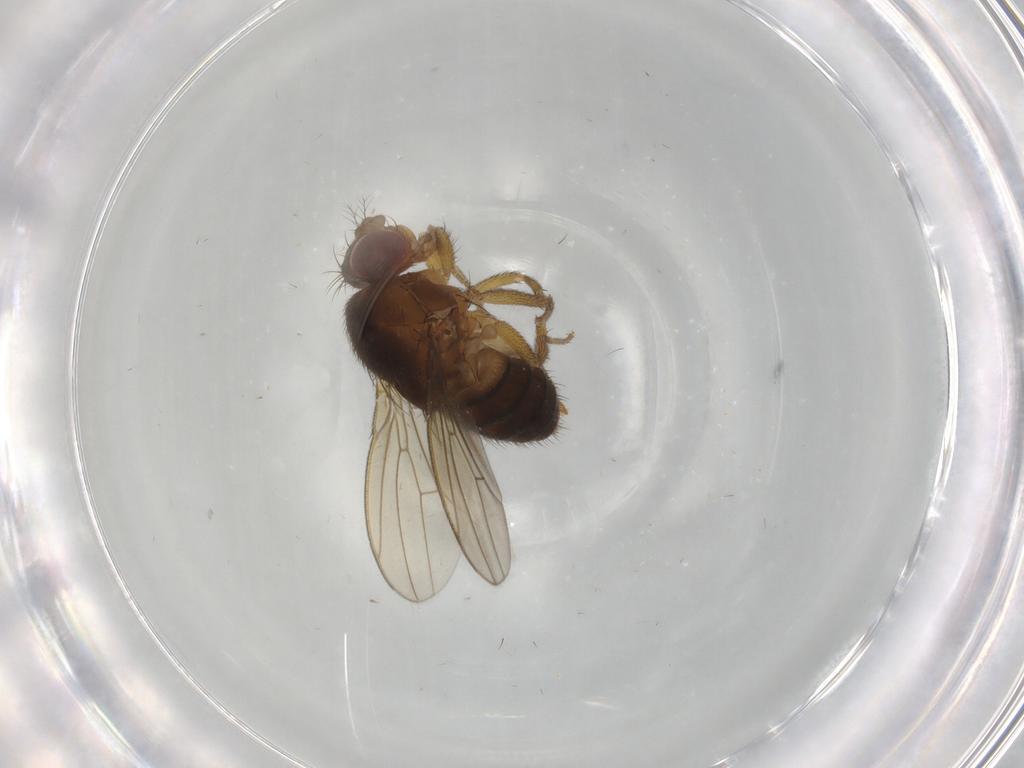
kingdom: Animalia
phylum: Arthropoda
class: Insecta
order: Diptera
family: Drosophilidae
